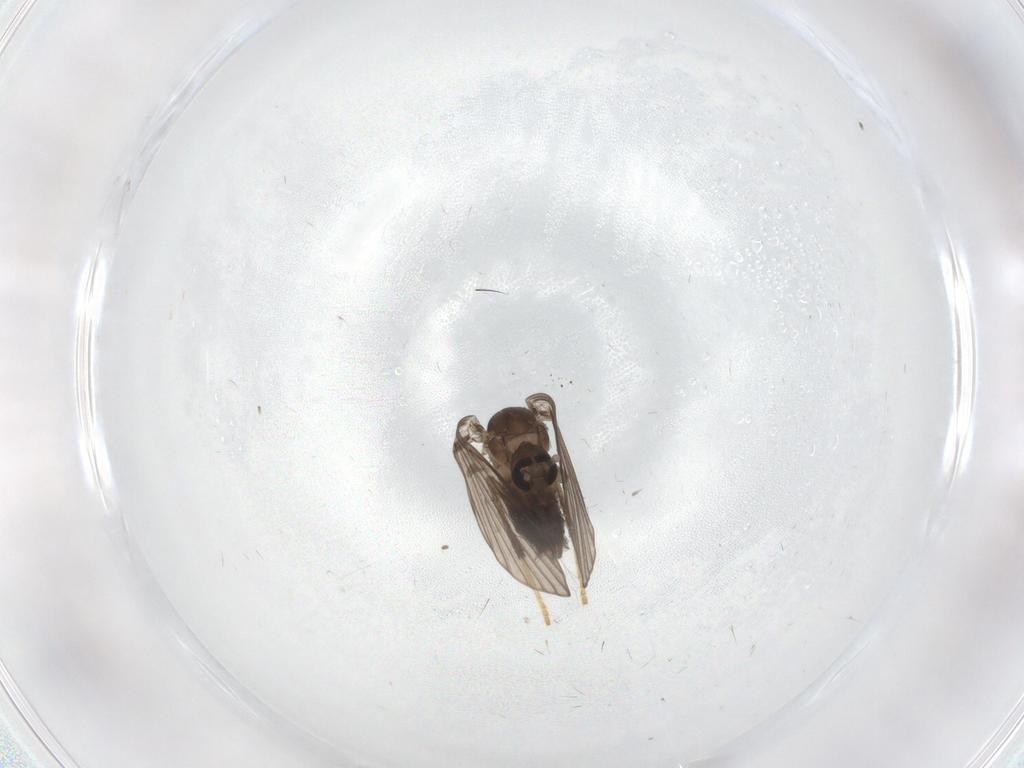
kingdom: Animalia
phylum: Arthropoda
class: Insecta
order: Diptera
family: Psychodidae
